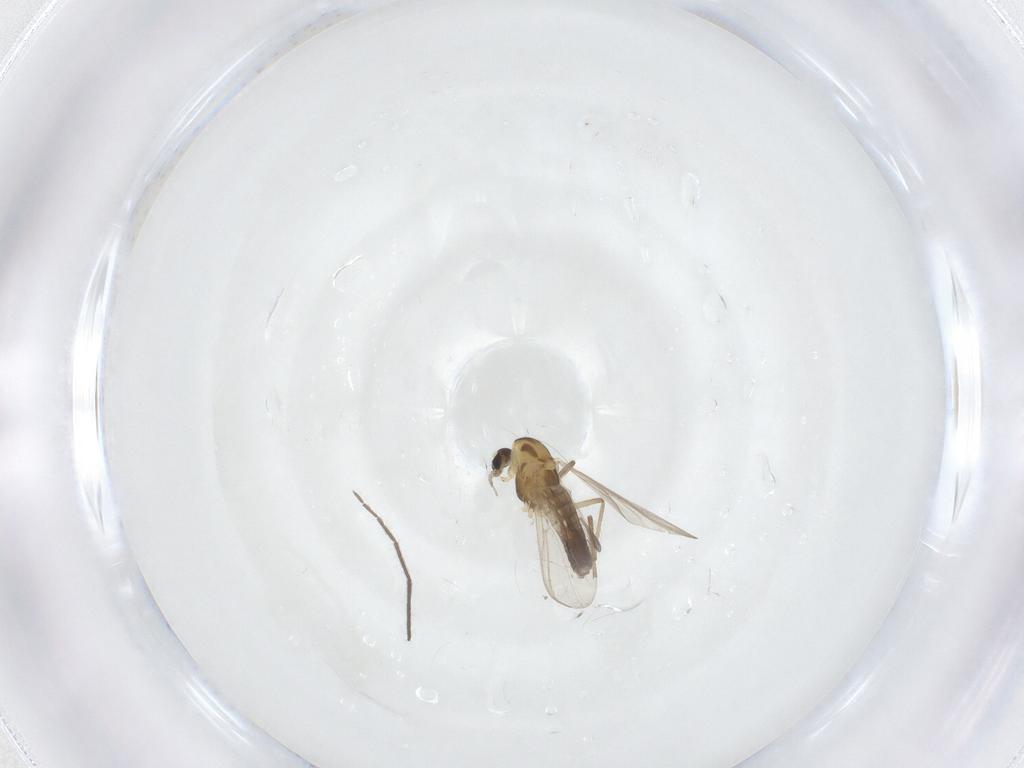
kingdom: Animalia
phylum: Arthropoda
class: Insecta
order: Diptera
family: Chironomidae
